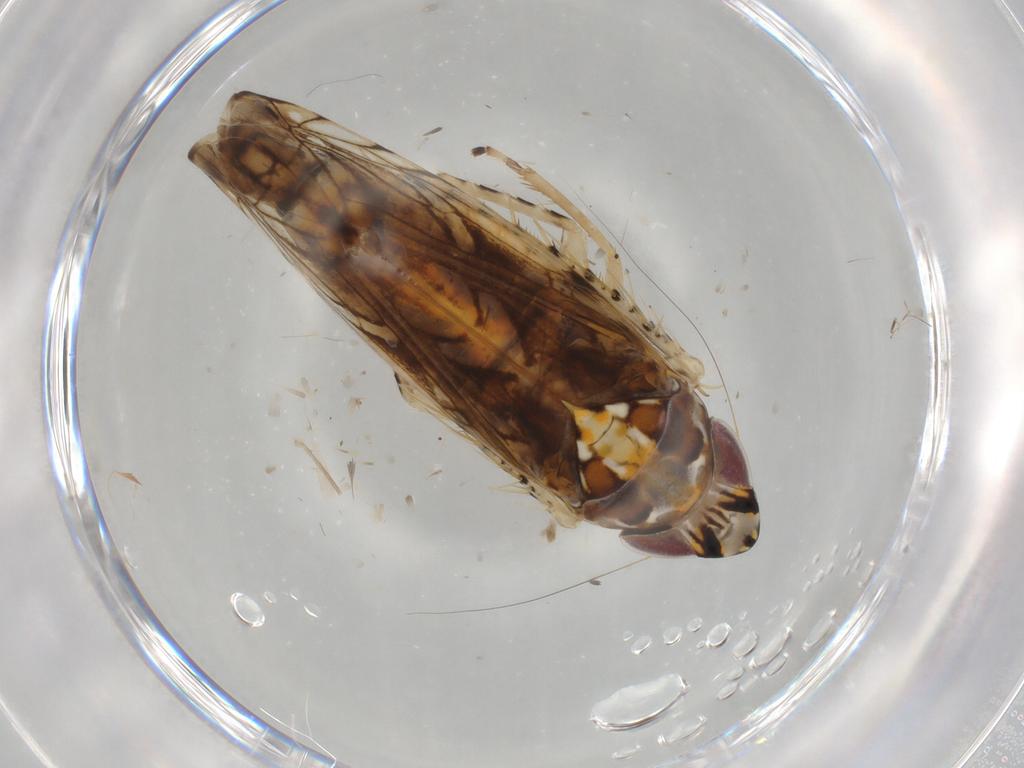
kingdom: Animalia
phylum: Arthropoda
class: Insecta
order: Hemiptera
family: Cicadellidae
